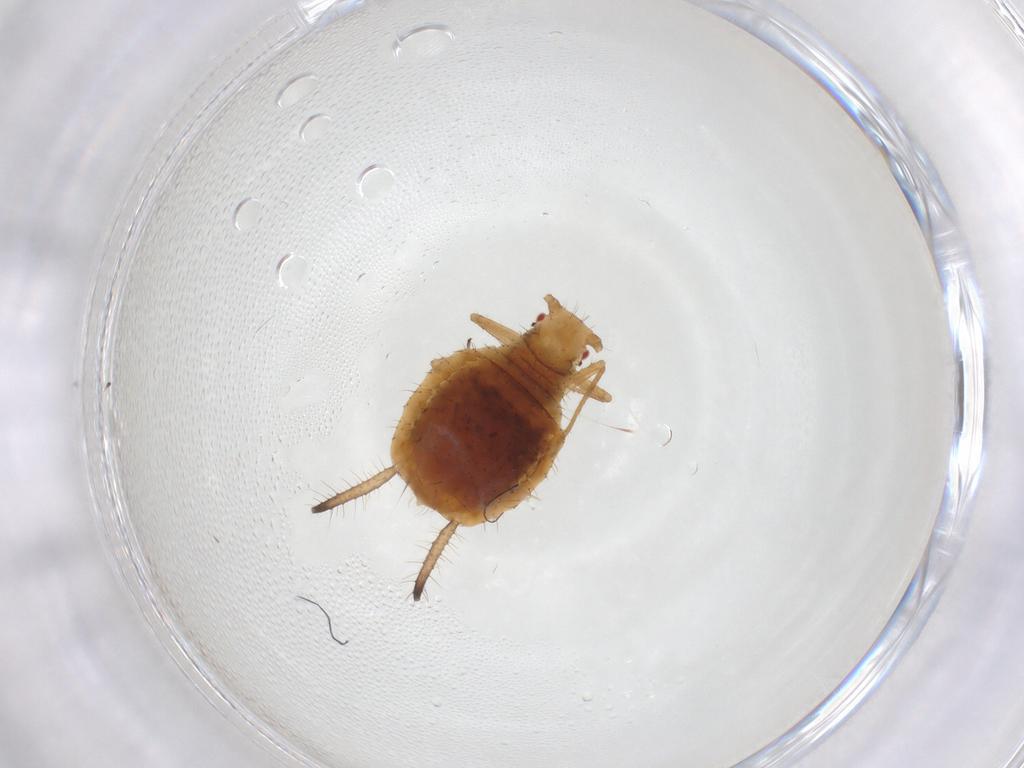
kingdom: Animalia
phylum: Arthropoda
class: Insecta
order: Hemiptera
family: Aphididae
